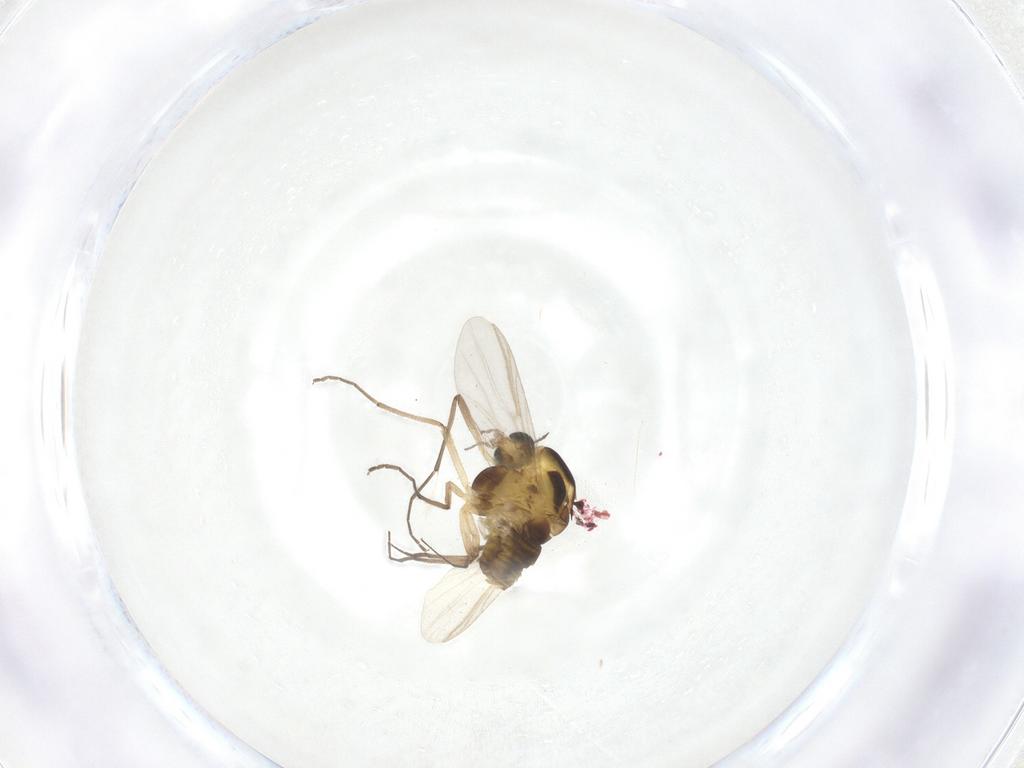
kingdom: Animalia
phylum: Arthropoda
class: Insecta
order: Diptera
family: Chironomidae
